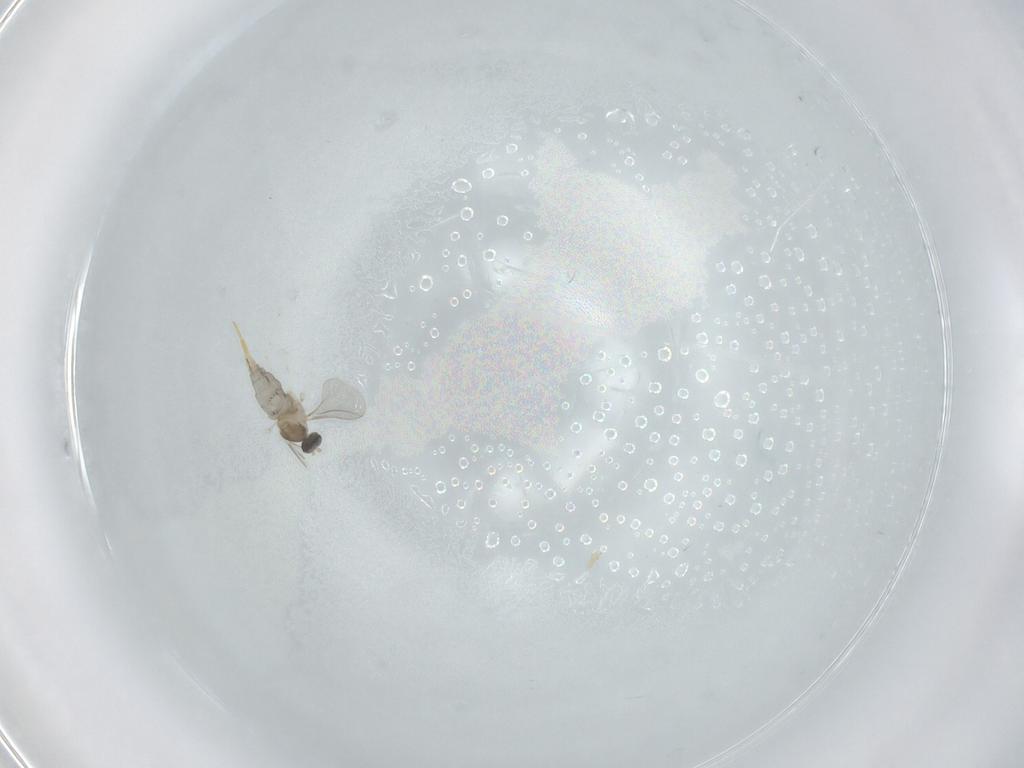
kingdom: Animalia
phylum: Arthropoda
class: Insecta
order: Diptera
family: Cecidomyiidae
